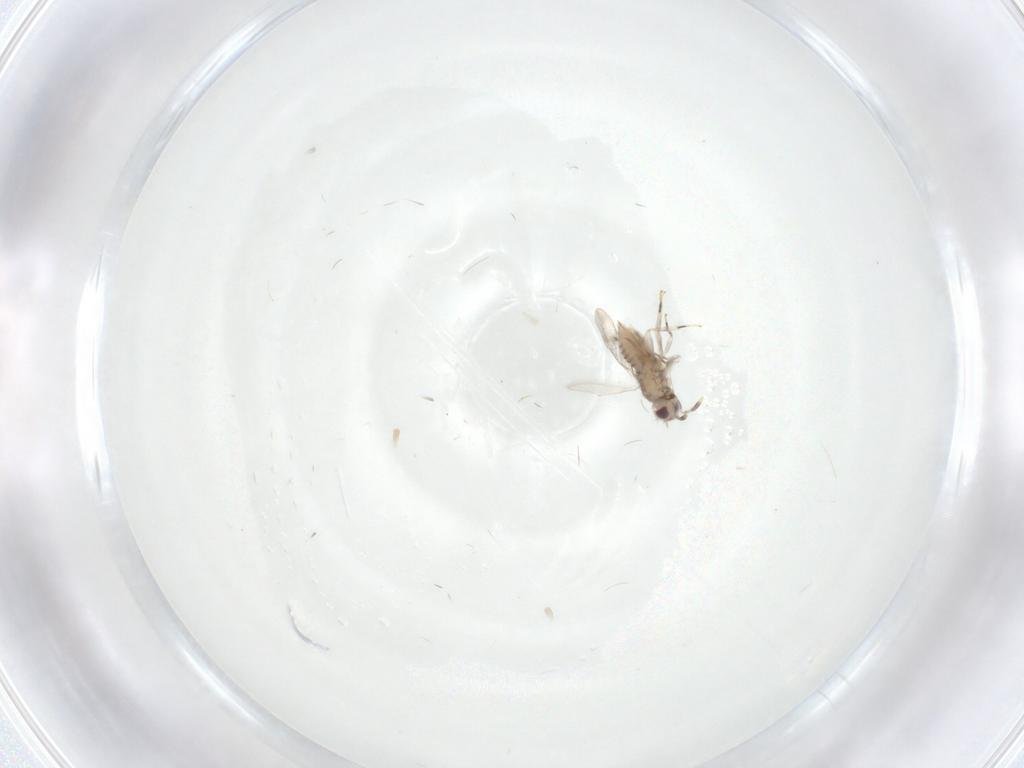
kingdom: Animalia
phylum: Arthropoda
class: Insecta
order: Hymenoptera
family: Aphelinidae
